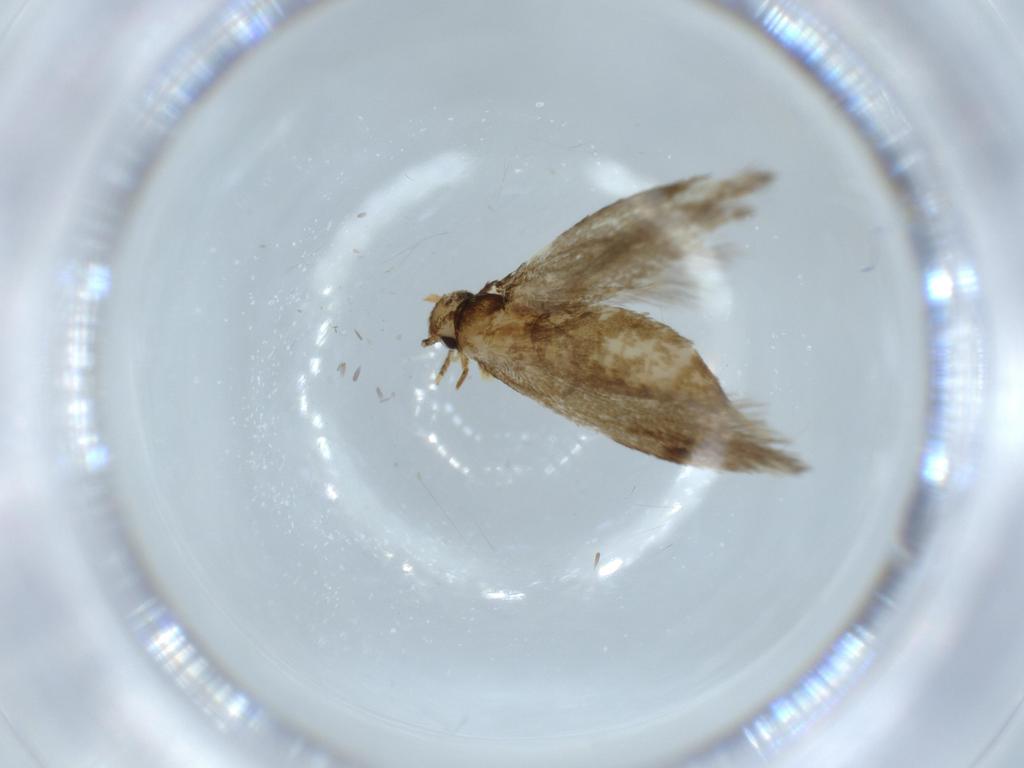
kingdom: Animalia
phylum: Arthropoda
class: Insecta
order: Lepidoptera
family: Tineidae
